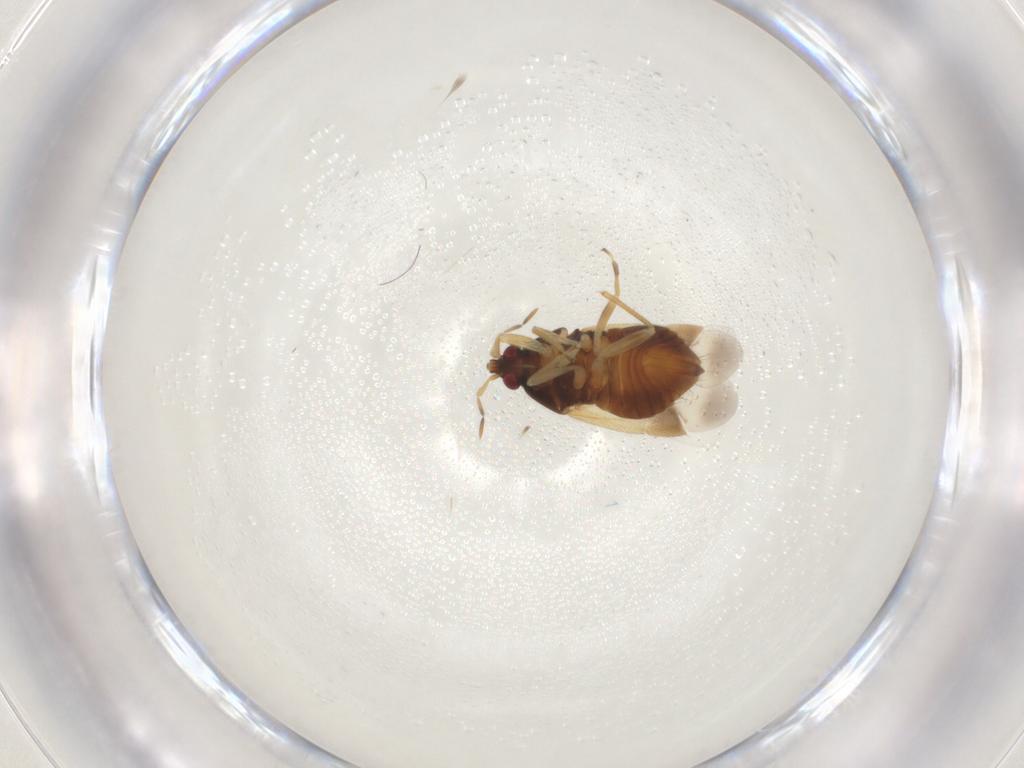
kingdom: Animalia
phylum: Arthropoda
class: Insecta
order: Hemiptera
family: Anthocoridae
